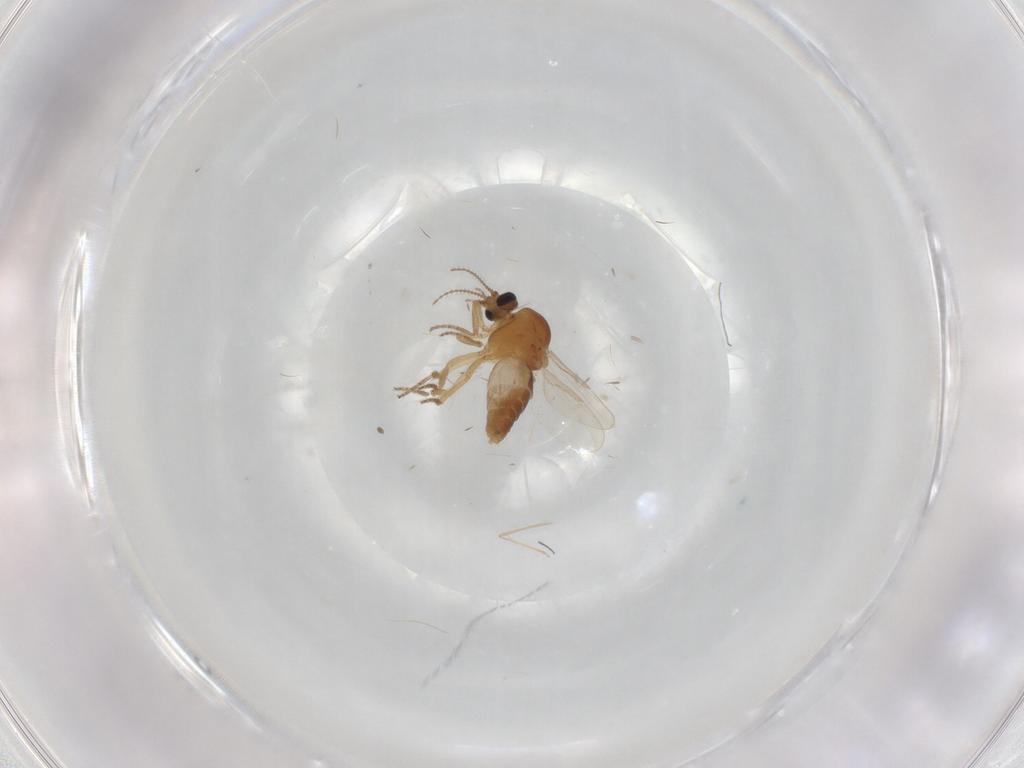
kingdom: Animalia
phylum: Arthropoda
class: Insecta
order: Diptera
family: Ceratopogonidae
